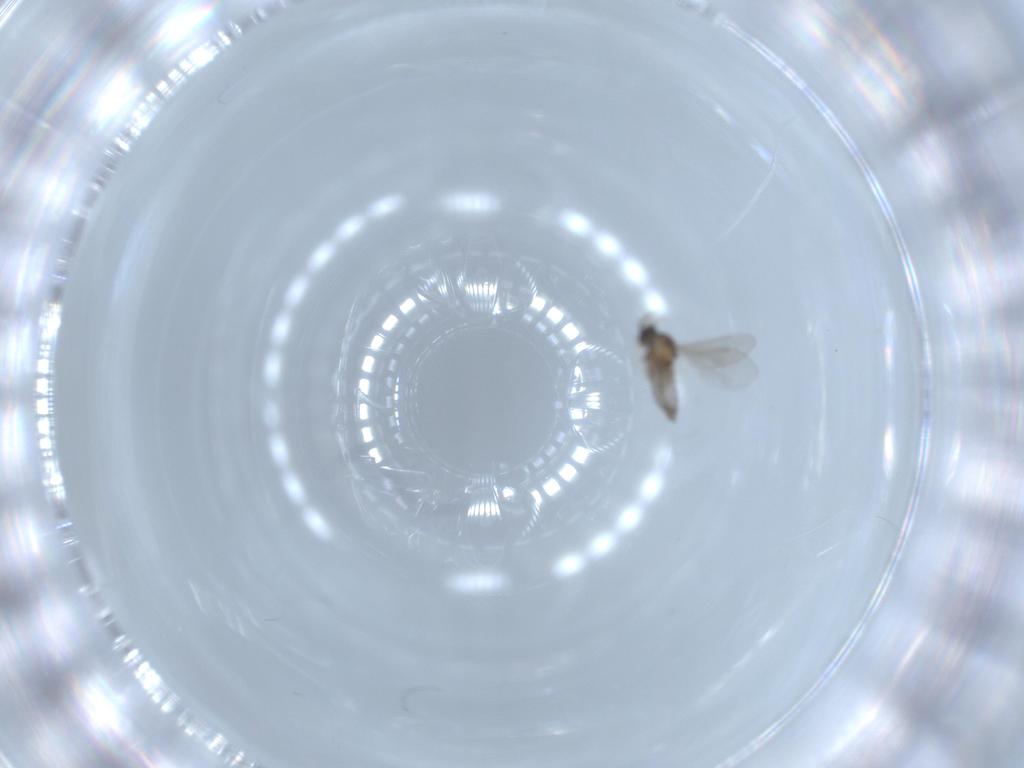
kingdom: Animalia
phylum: Arthropoda
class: Insecta
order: Diptera
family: Cecidomyiidae
